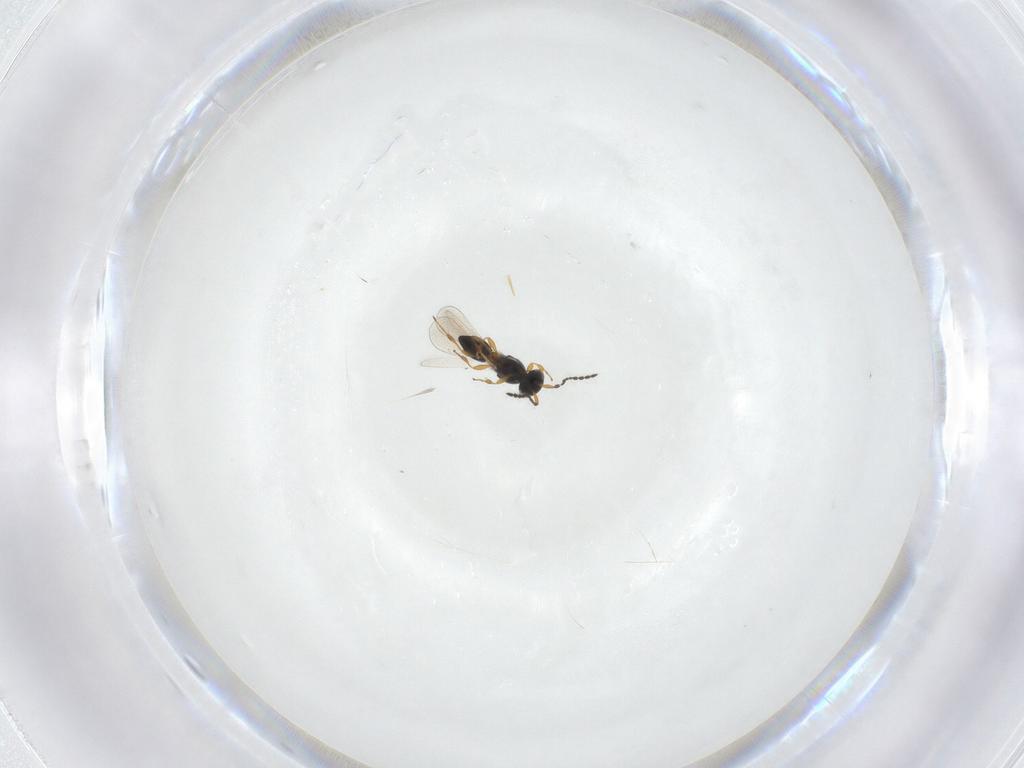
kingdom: Animalia
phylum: Arthropoda
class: Insecta
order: Hymenoptera
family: Platygastridae
